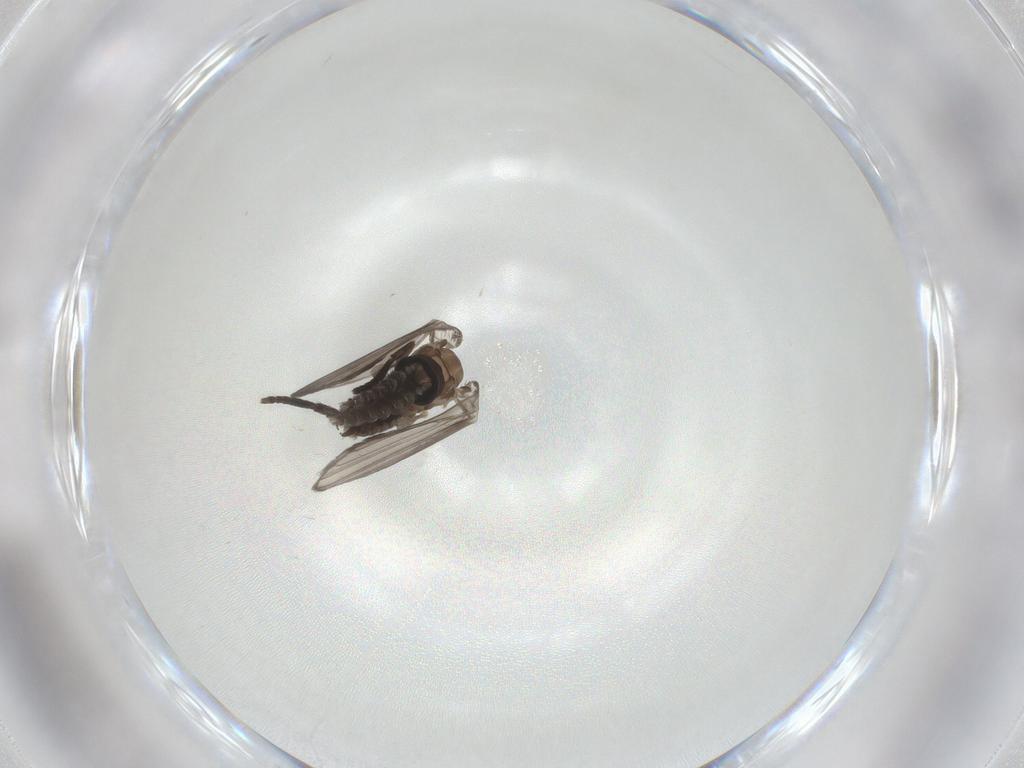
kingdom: Animalia
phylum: Arthropoda
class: Insecta
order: Diptera
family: Psychodidae
